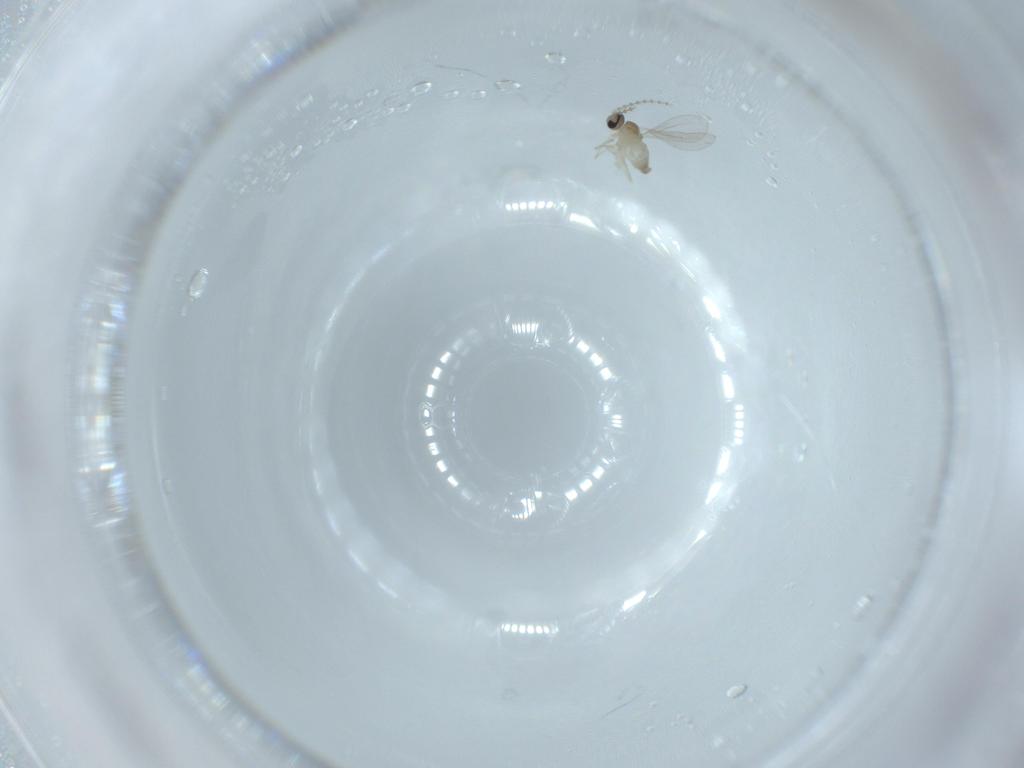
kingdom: Animalia
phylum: Arthropoda
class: Insecta
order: Diptera
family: Cecidomyiidae
